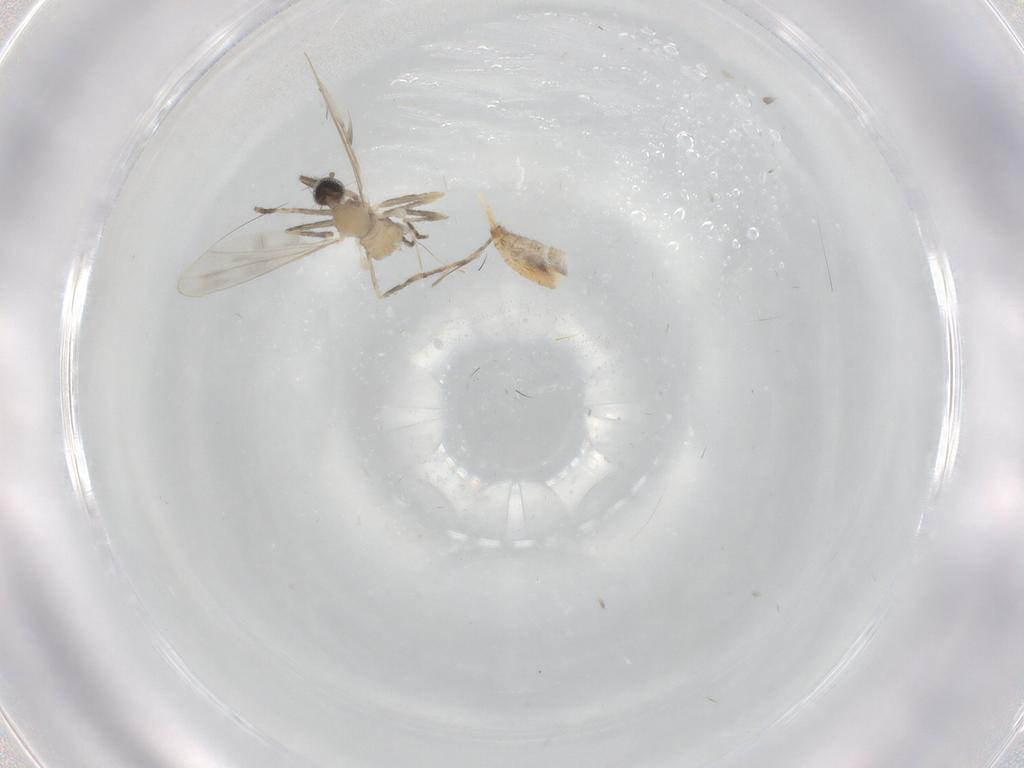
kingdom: Animalia
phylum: Arthropoda
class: Insecta
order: Diptera
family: Cecidomyiidae
